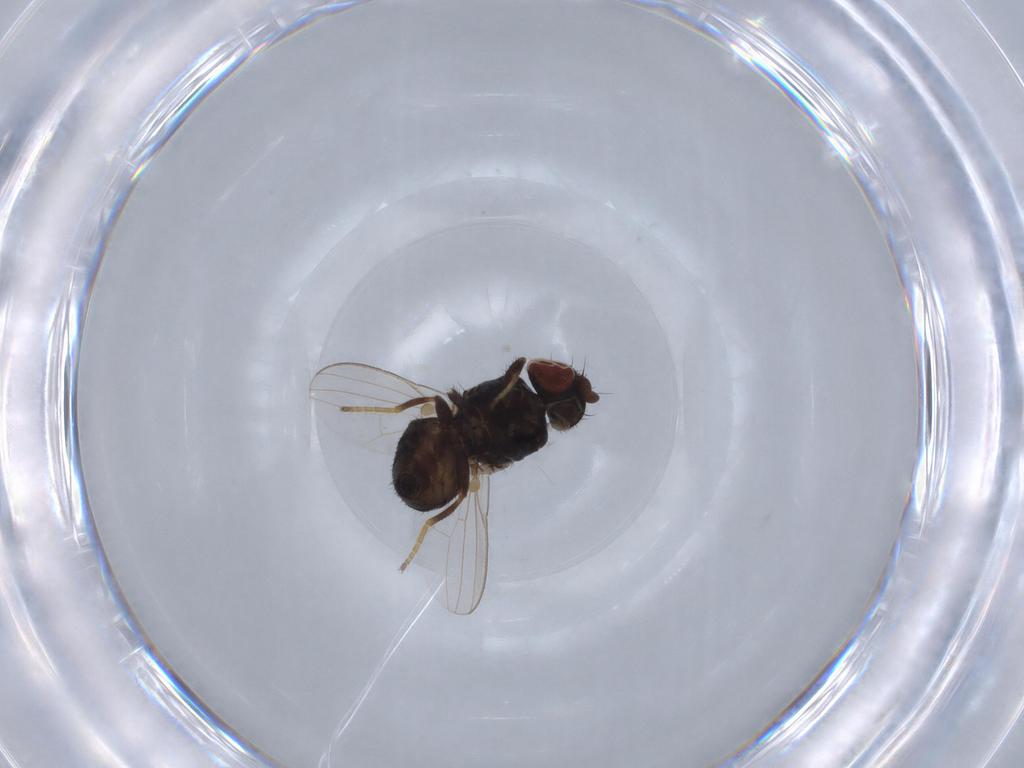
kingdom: Animalia
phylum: Arthropoda
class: Insecta
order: Diptera
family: Milichiidae
